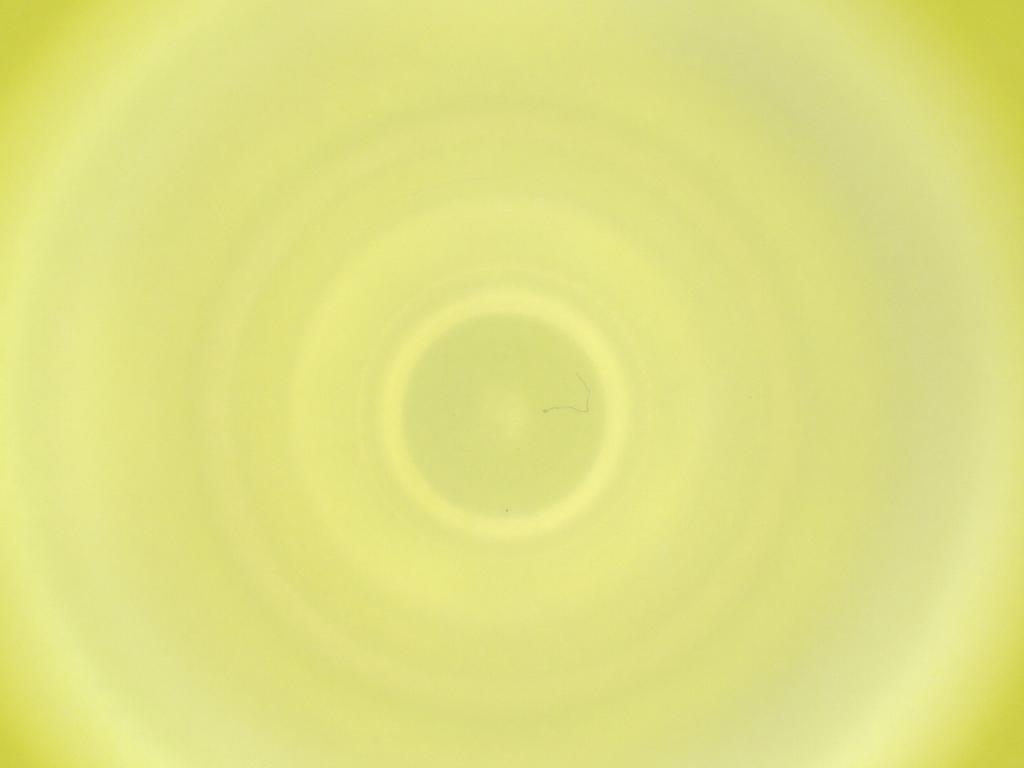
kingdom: Animalia
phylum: Arthropoda
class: Insecta
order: Diptera
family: Cecidomyiidae
